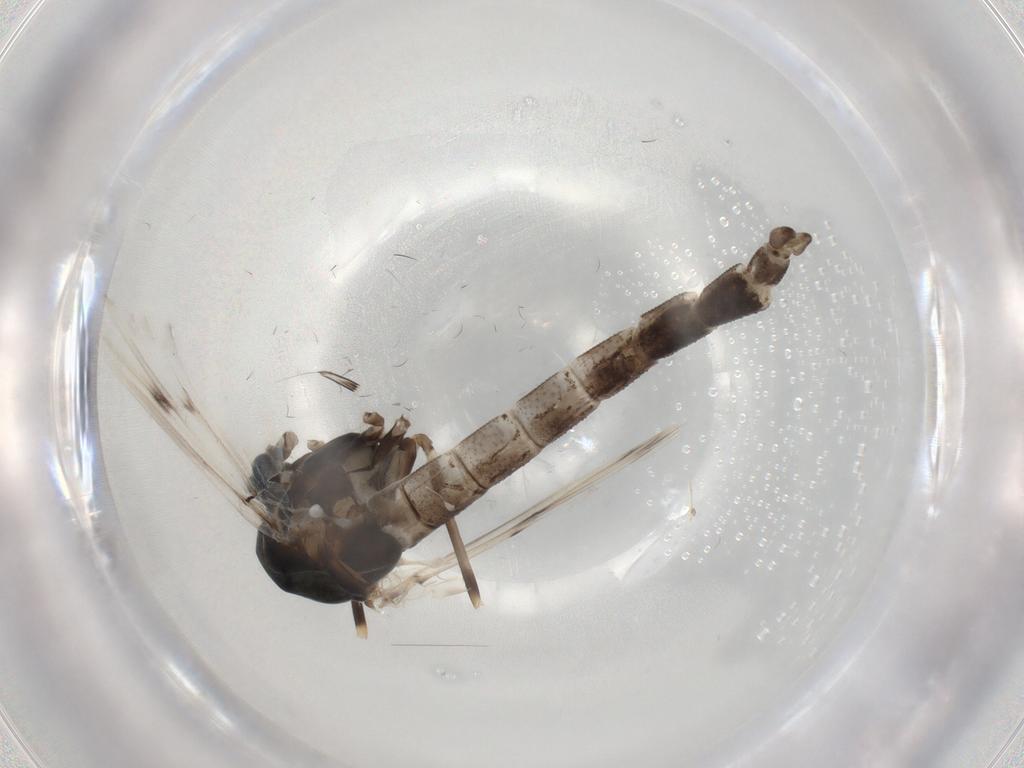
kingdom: Animalia
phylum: Arthropoda
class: Insecta
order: Diptera
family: Chironomidae
